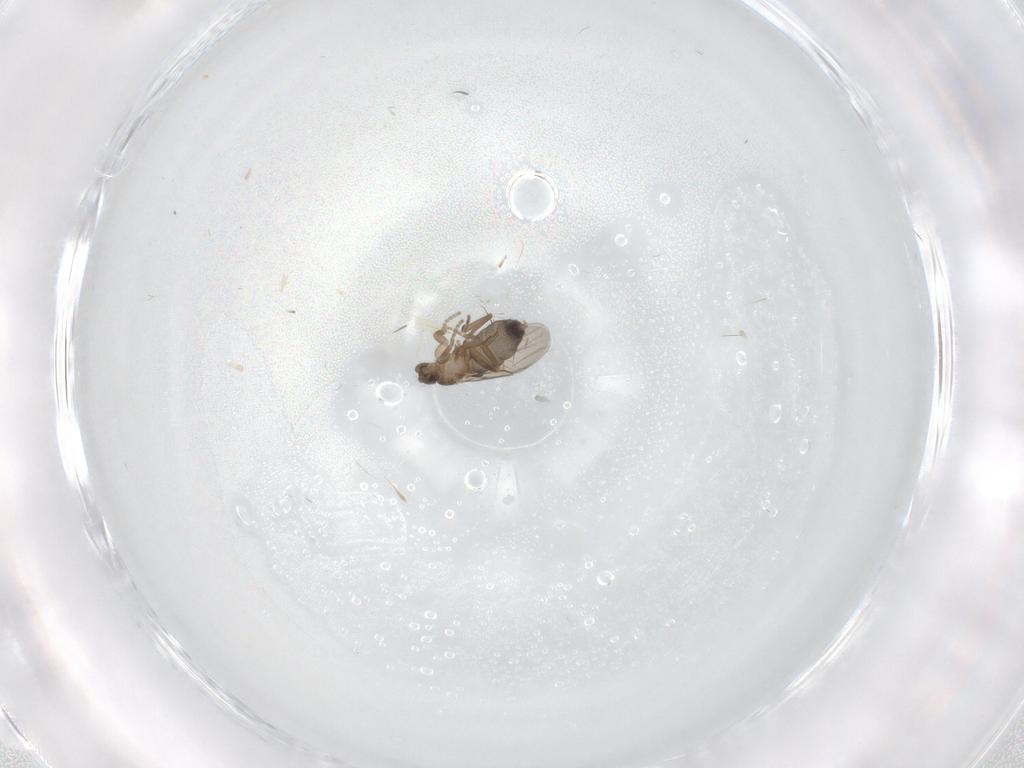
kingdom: Animalia
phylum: Arthropoda
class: Insecta
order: Diptera
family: Phoridae
